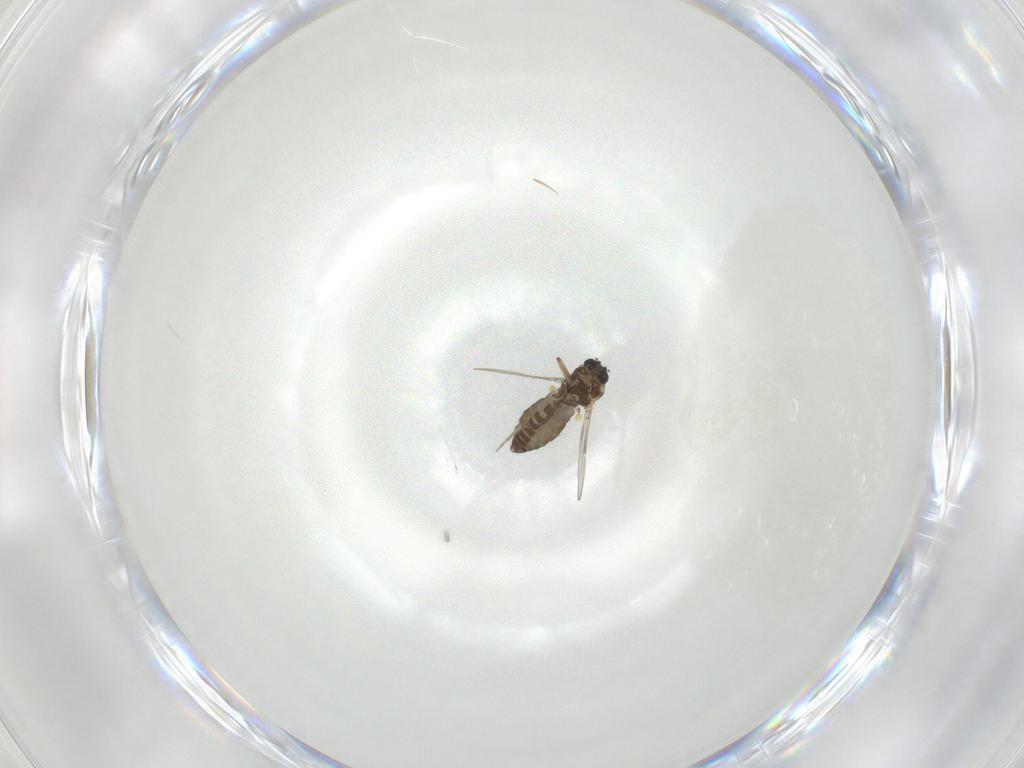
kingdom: Animalia
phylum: Arthropoda
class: Insecta
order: Diptera
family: Ceratopogonidae
